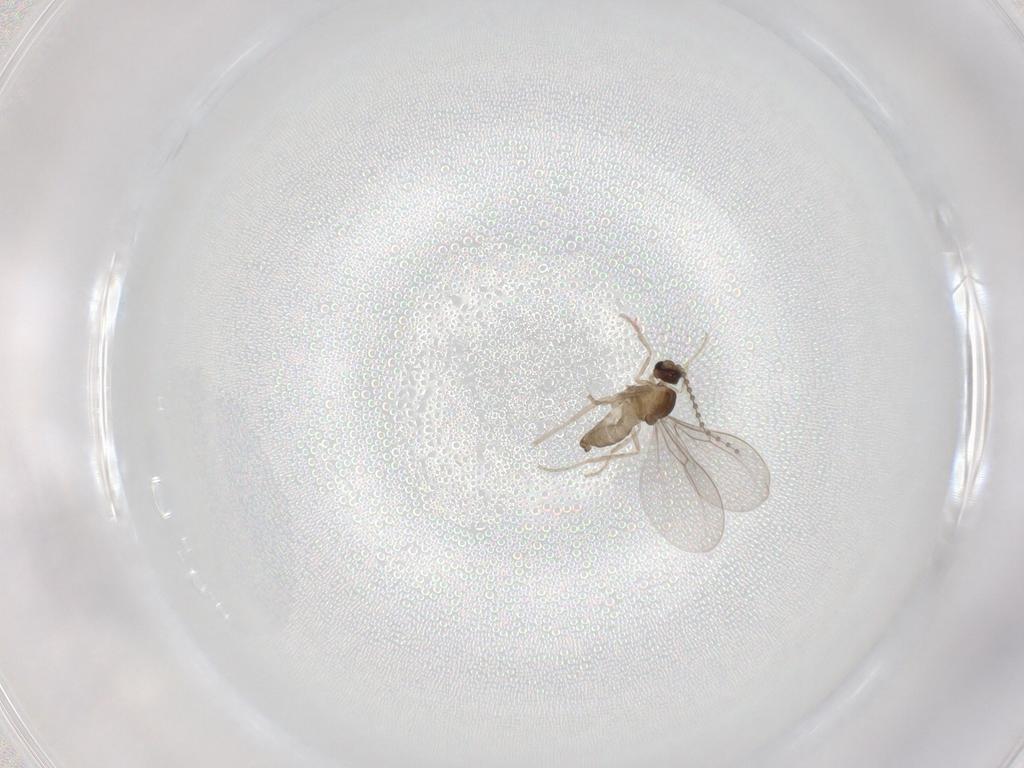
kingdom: Animalia
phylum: Arthropoda
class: Insecta
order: Diptera
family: Cecidomyiidae
